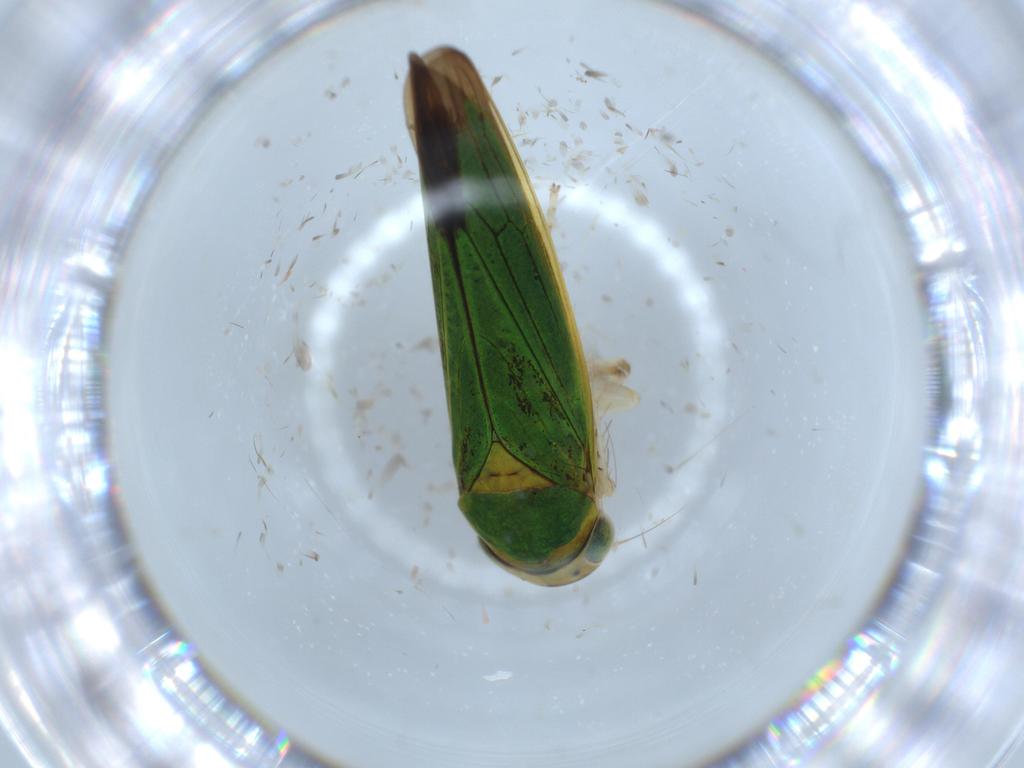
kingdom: Animalia
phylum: Arthropoda
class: Insecta
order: Hemiptera
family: Cicadellidae
